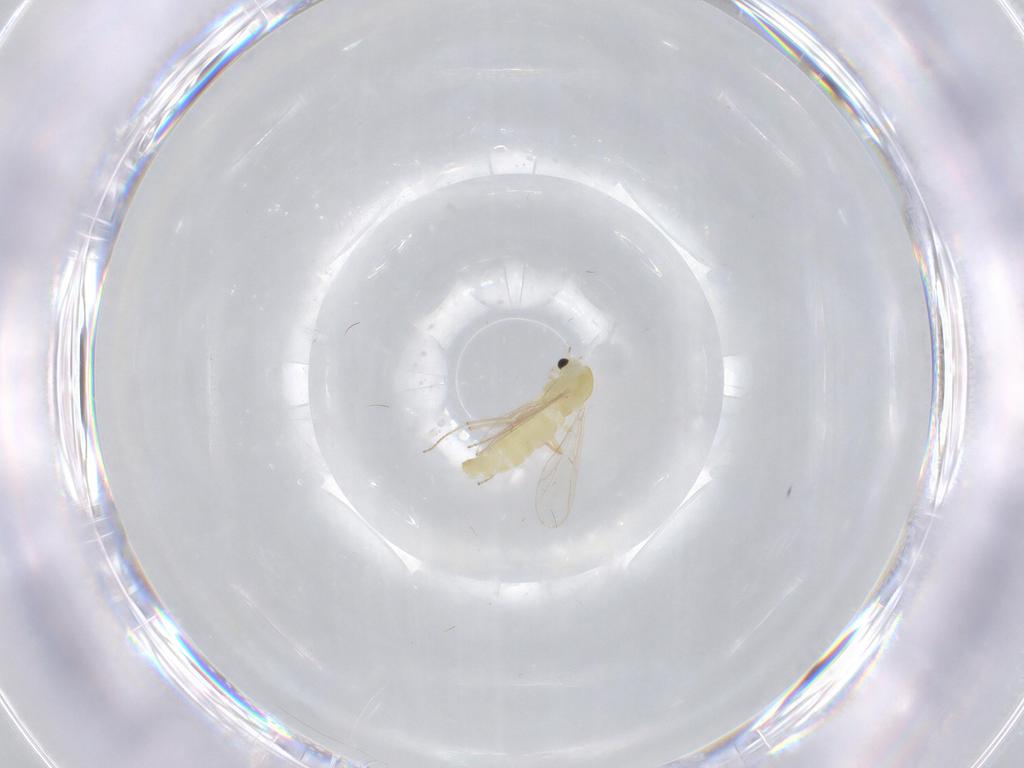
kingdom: Animalia
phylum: Arthropoda
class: Insecta
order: Diptera
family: Chironomidae
